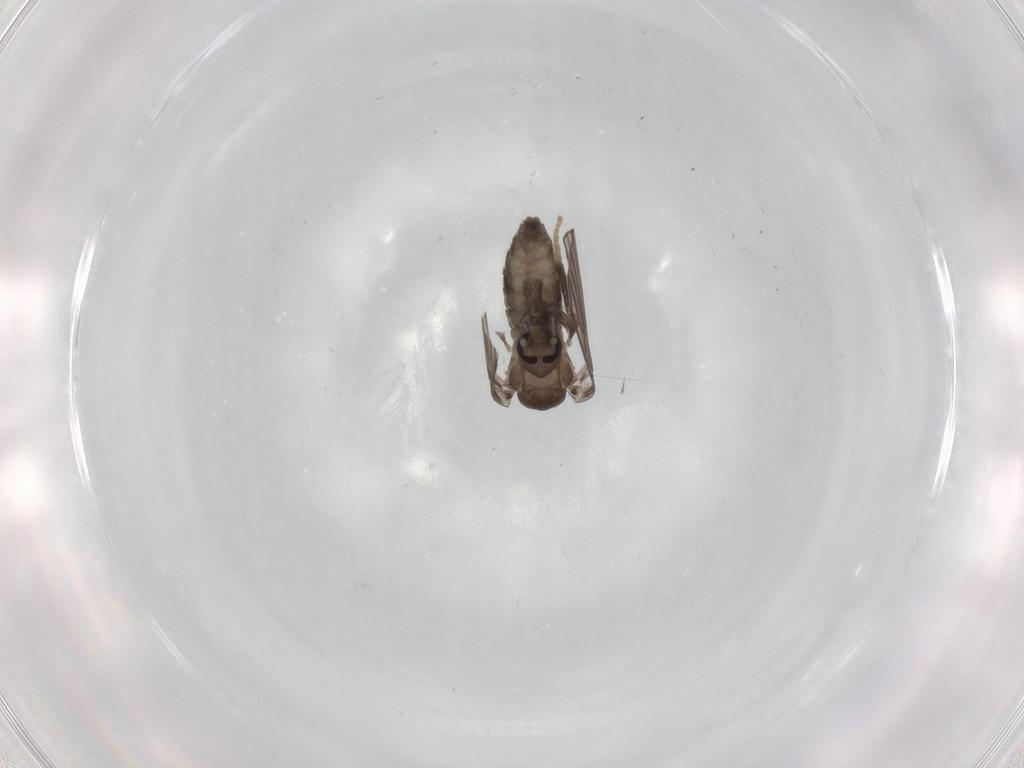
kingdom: Animalia
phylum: Arthropoda
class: Insecta
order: Diptera
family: Psychodidae
